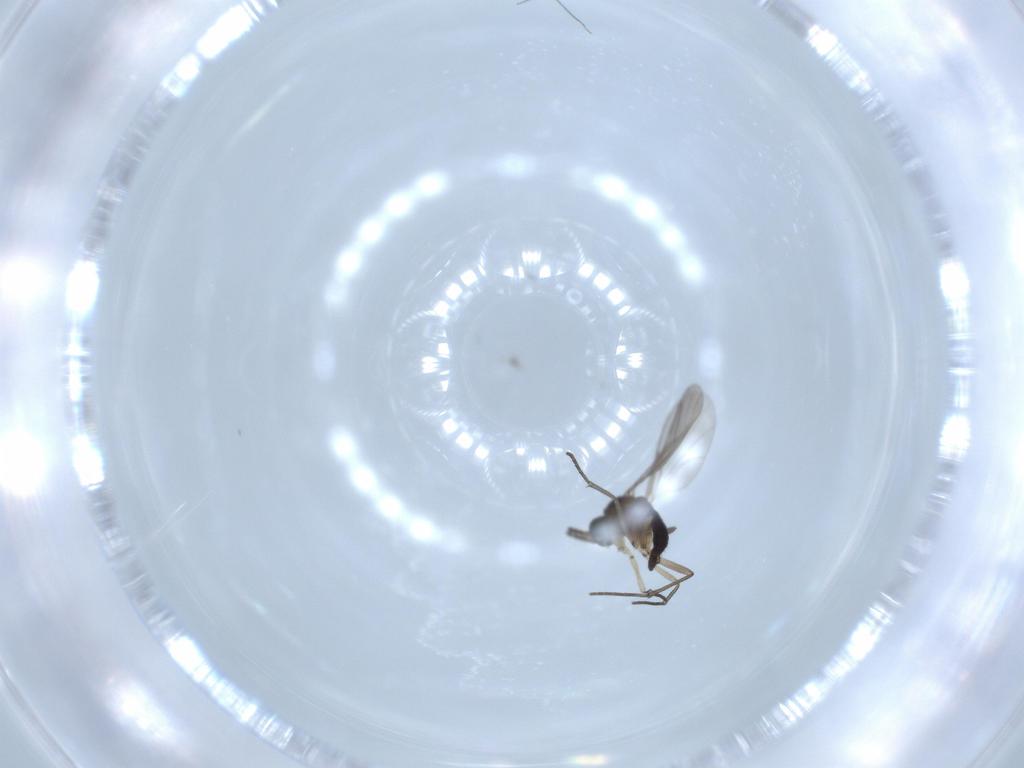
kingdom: Animalia
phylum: Arthropoda
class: Insecta
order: Diptera
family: Sciaridae
